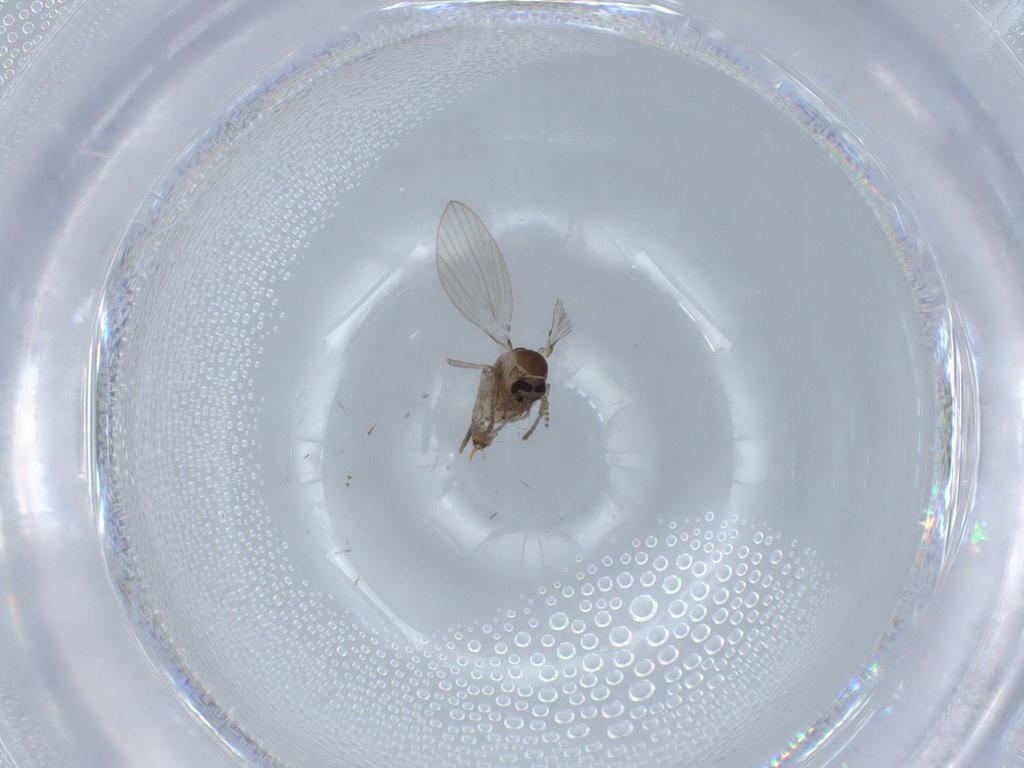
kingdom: Animalia
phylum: Arthropoda
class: Insecta
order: Diptera
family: Psychodidae
